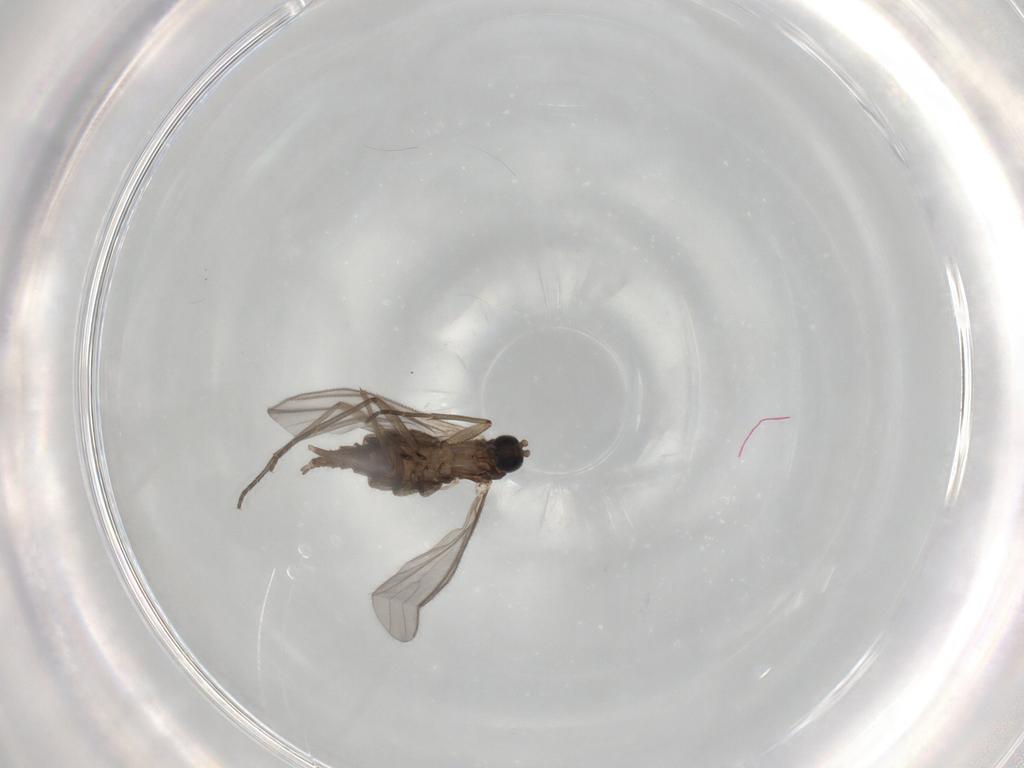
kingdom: Animalia
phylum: Arthropoda
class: Insecta
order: Diptera
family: Sciaridae
